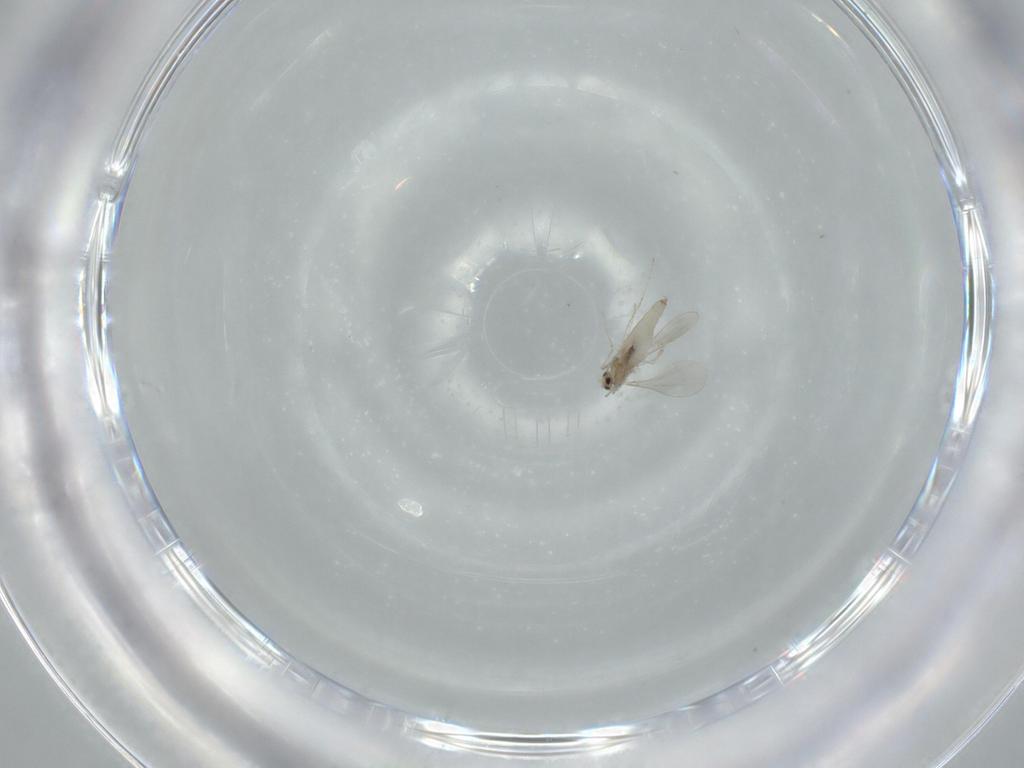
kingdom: Animalia
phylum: Arthropoda
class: Insecta
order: Diptera
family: Cecidomyiidae
